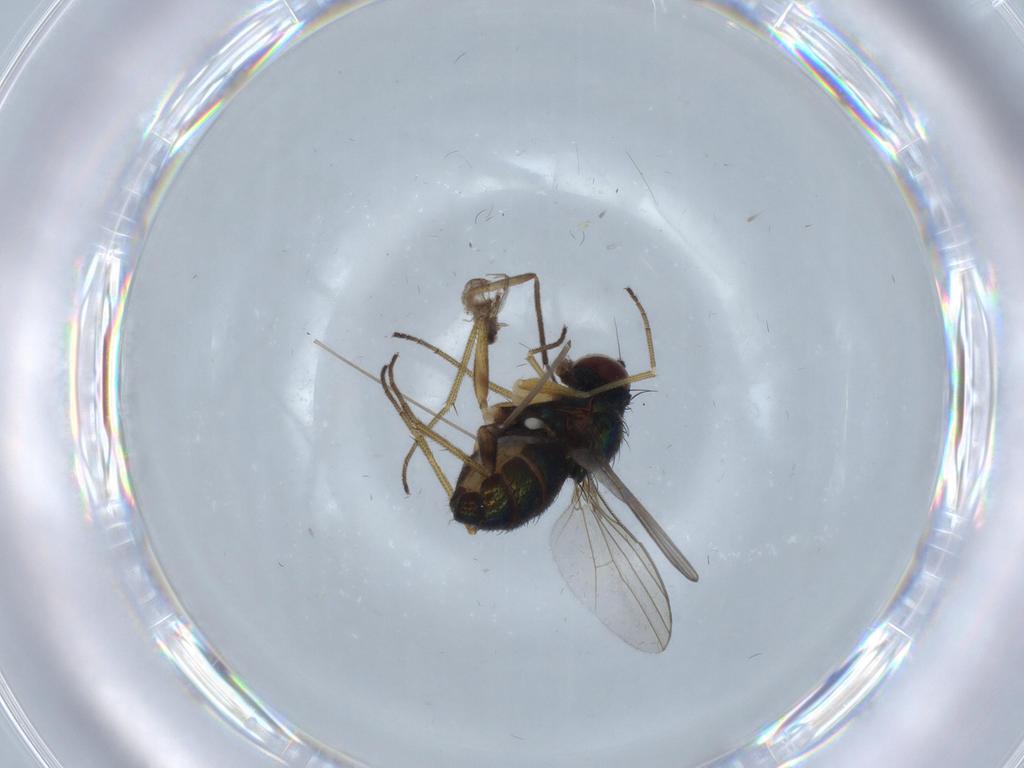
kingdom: Animalia
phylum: Arthropoda
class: Insecta
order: Diptera
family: Dolichopodidae
